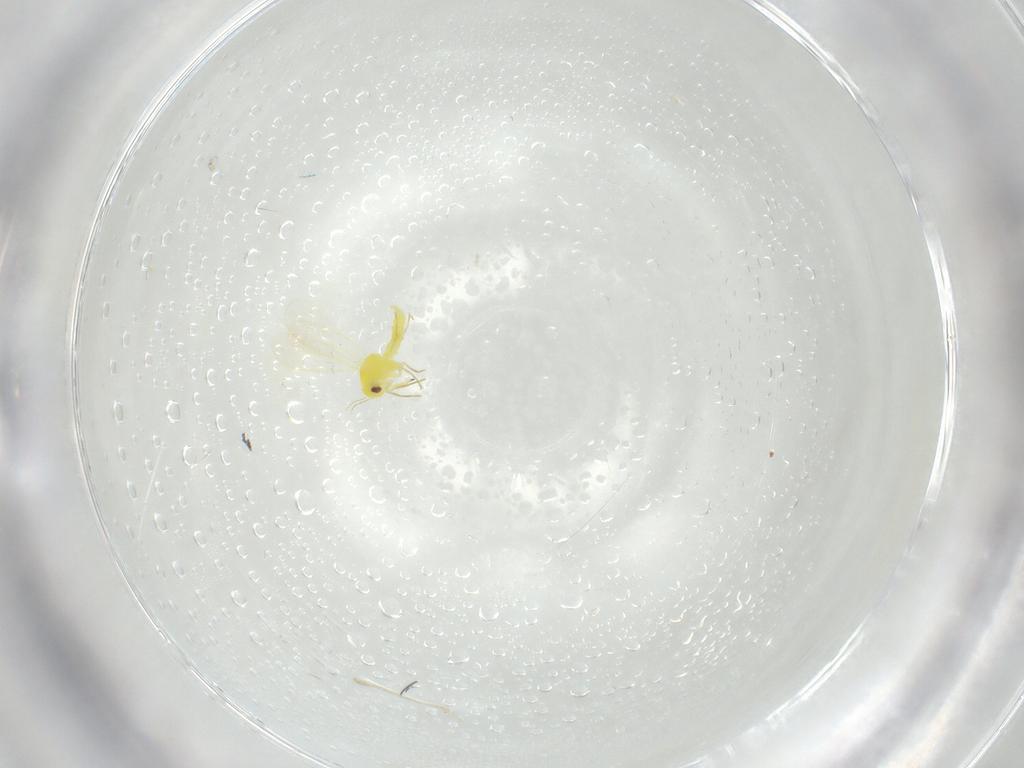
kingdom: Animalia
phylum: Arthropoda
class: Insecta
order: Hemiptera
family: Aleyrodidae
